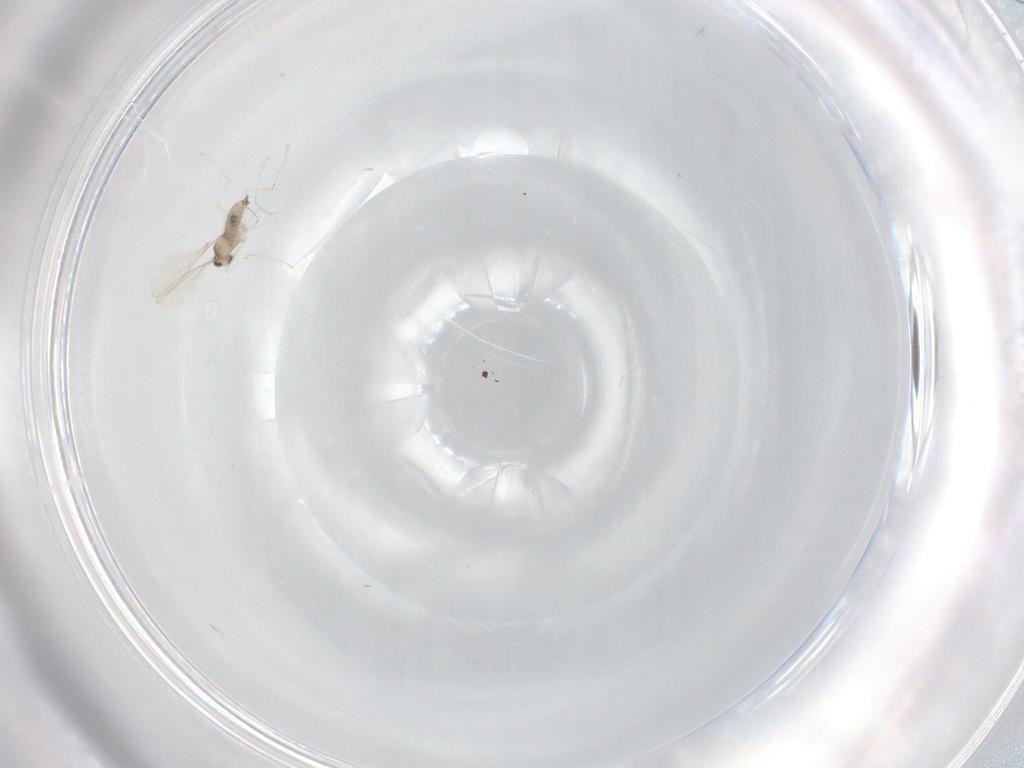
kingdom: Animalia
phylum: Arthropoda
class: Insecta
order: Diptera
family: Cecidomyiidae
